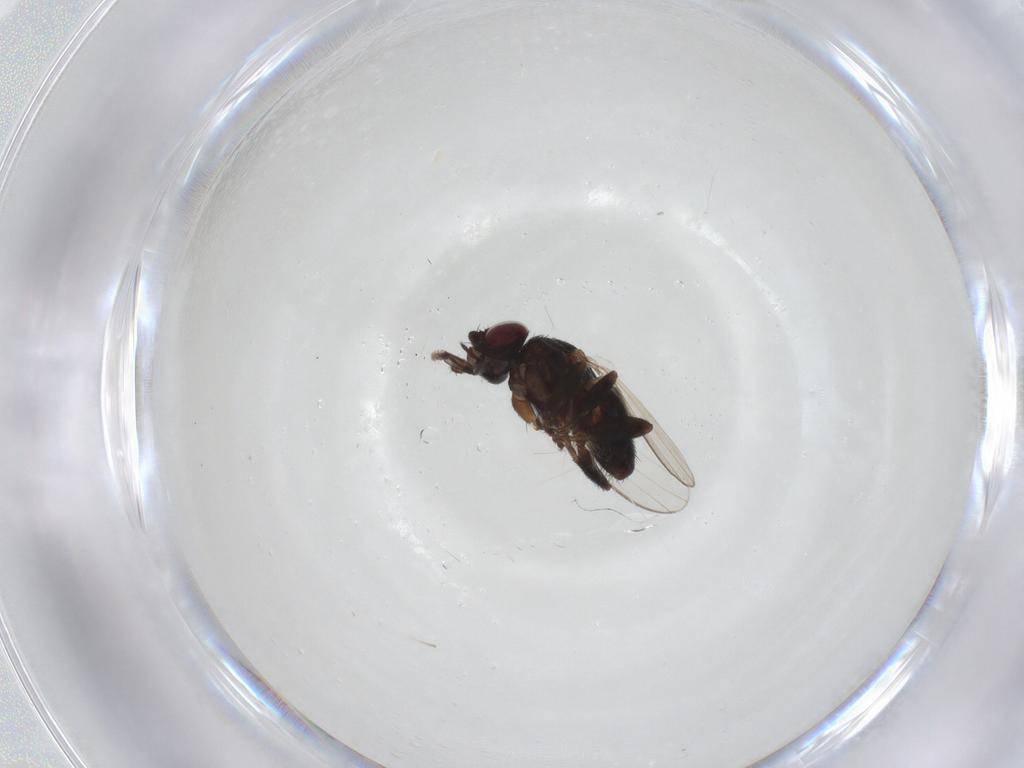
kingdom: Animalia
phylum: Arthropoda
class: Insecta
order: Diptera
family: Milichiidae
